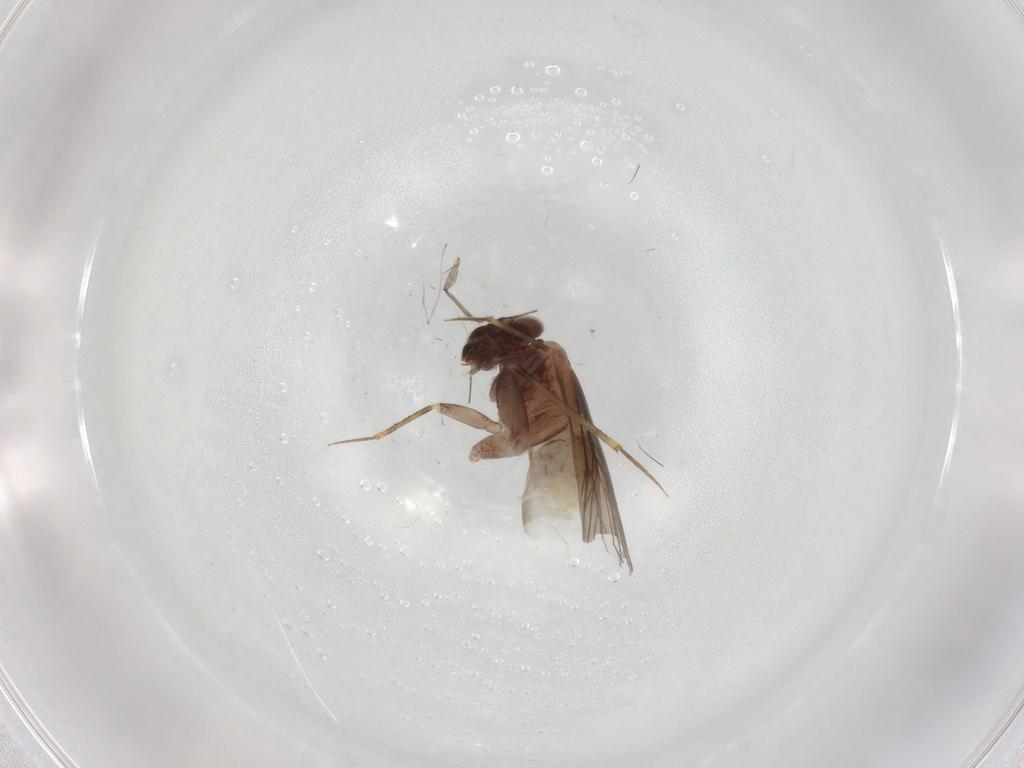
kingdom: Animalia
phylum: Arthropoda
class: Insecta
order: Psocodea
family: Lepidopsocidae
